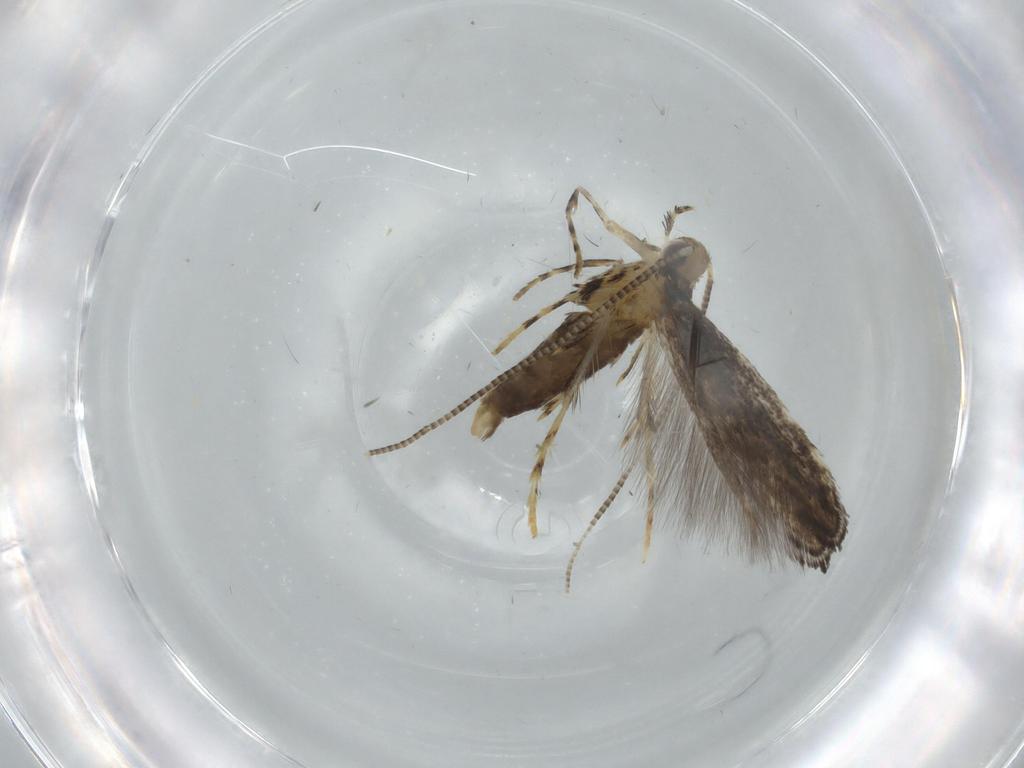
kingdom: Animalia
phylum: Arthropoda
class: Insecta
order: Lepidoptera
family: Gracillariidae
